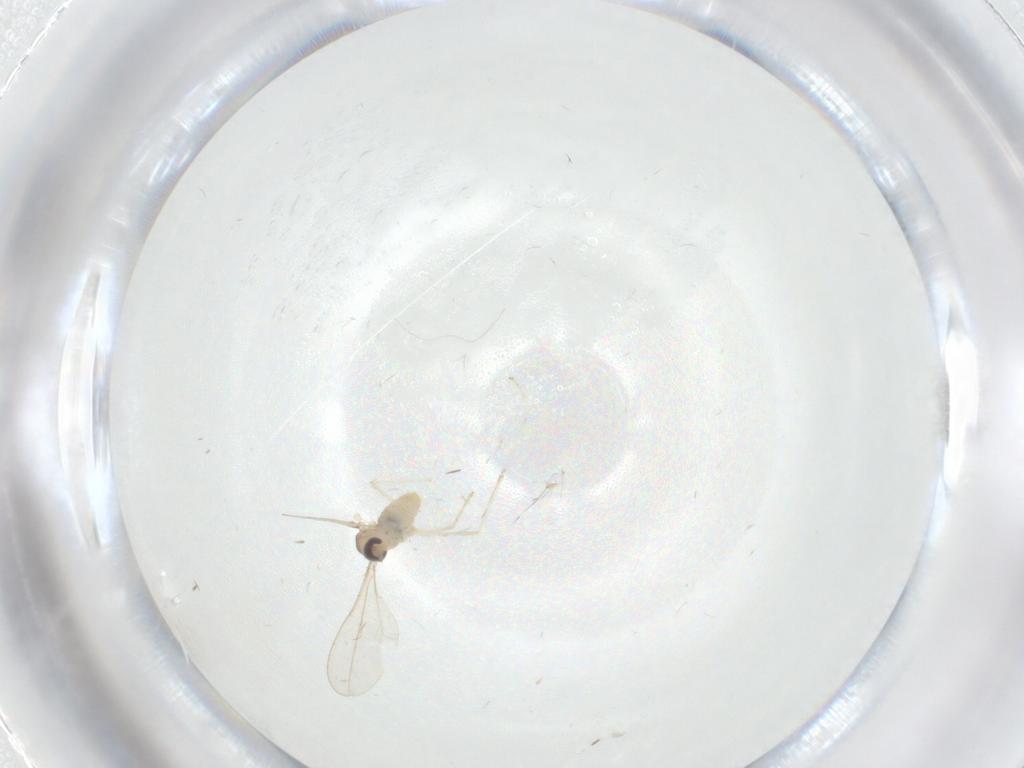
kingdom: Animalia
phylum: Arthropoda
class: Insecta
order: Diptera
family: Cecidomyiidae
